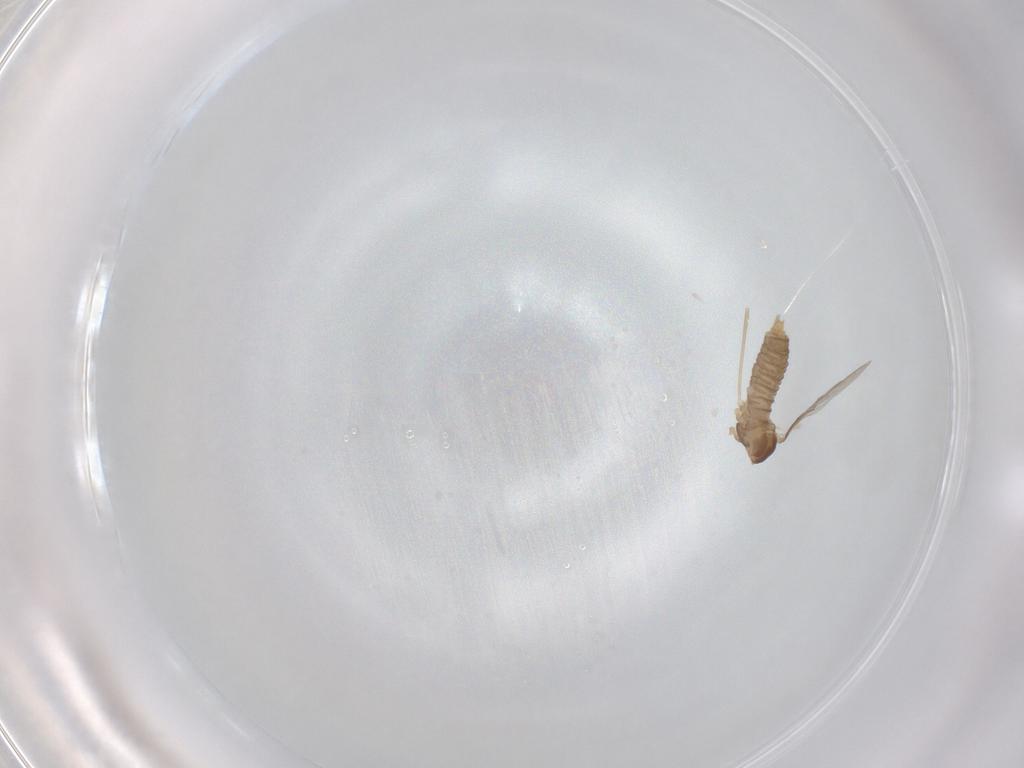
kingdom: Animalia
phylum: Arthropoda
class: Insecta
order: Diptera
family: Cecidomyiidae
